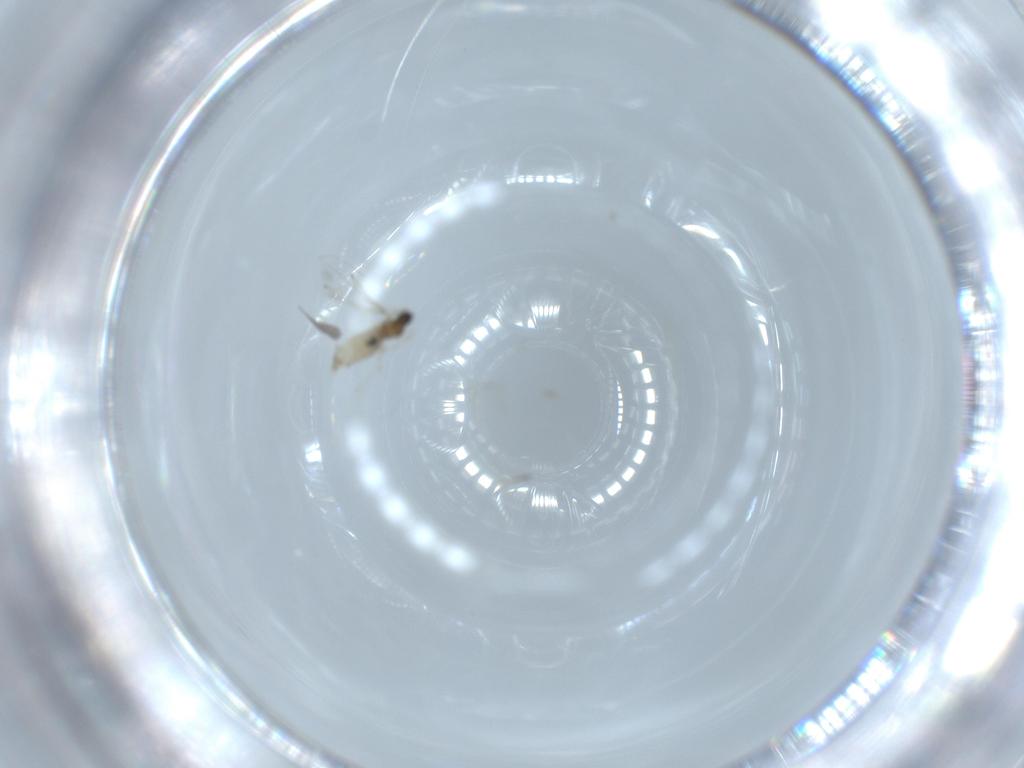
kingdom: Animalia
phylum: Arthropoda
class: Insecta
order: Diptera
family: Cecidomyiidae
